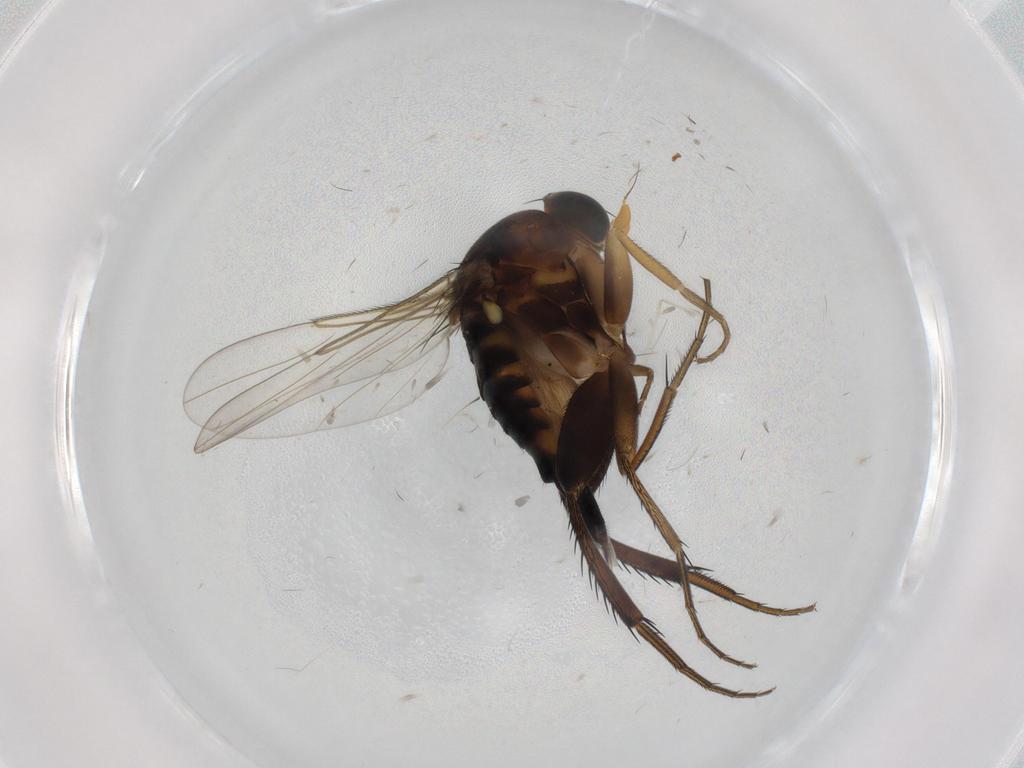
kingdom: Animalia
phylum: Arthropoda
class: Insecta
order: Diptera
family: Phoridae
